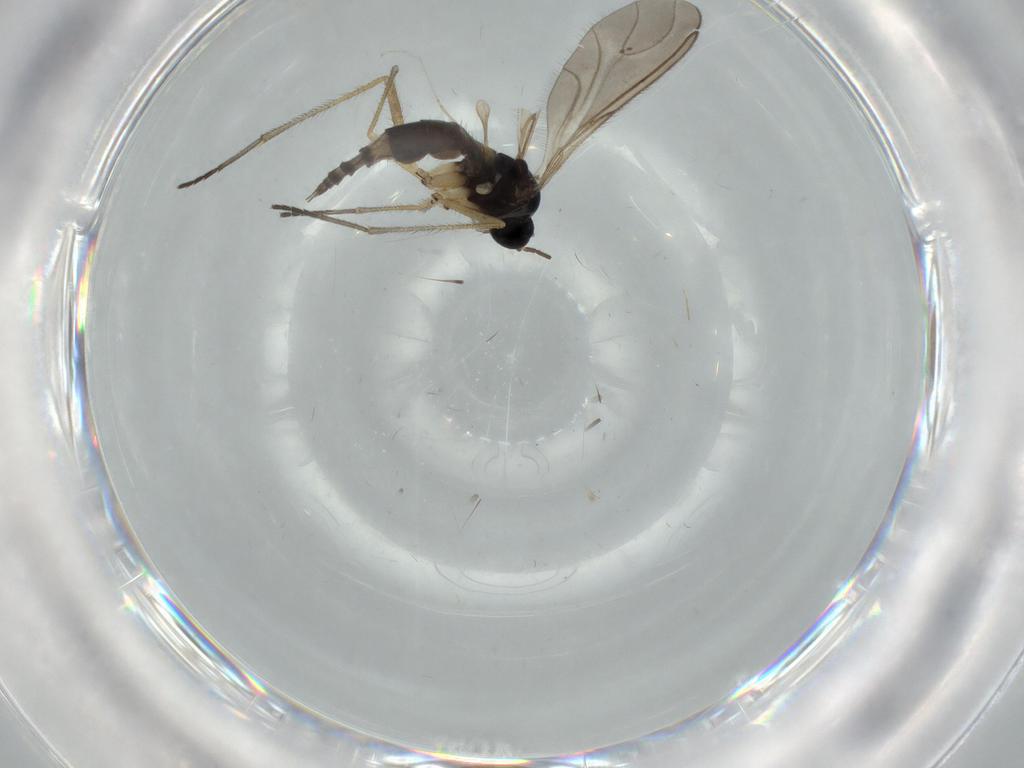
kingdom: Animalia
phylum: Arthropoda
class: Insecta
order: Diptera
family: Sciaridae
